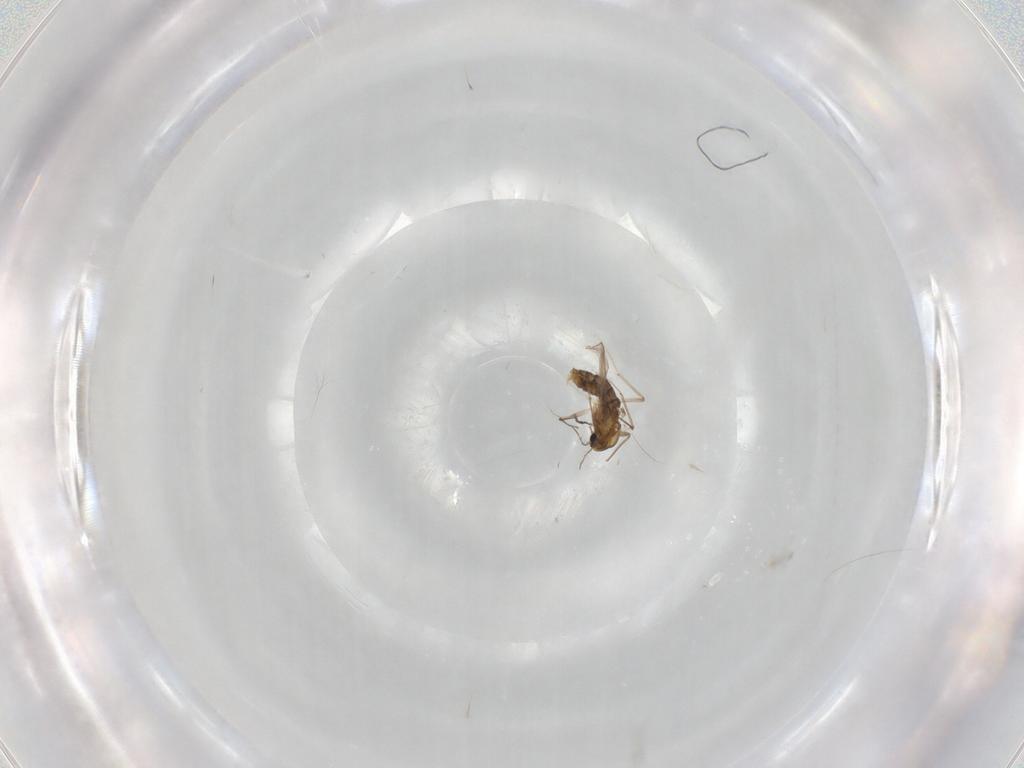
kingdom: Animalia
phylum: Arthropoda
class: Insecta
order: Diptera
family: Chironomidae
